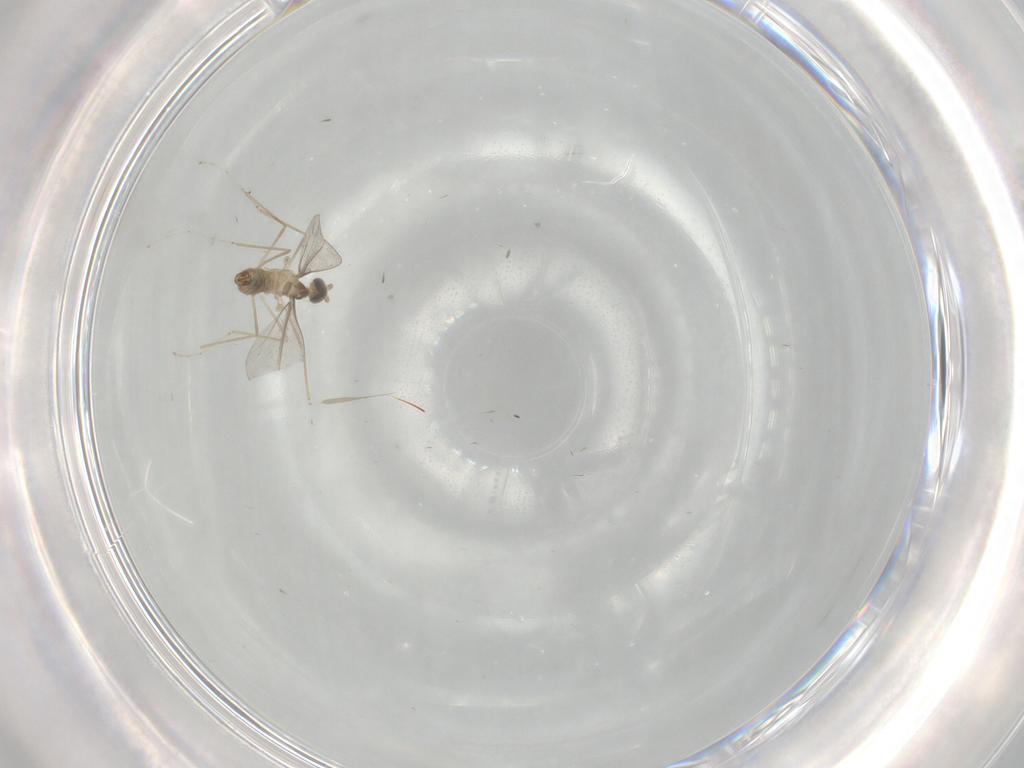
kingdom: Animalia
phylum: Arthropoda
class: Insecta
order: Diptera
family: Cecidomyiidae
